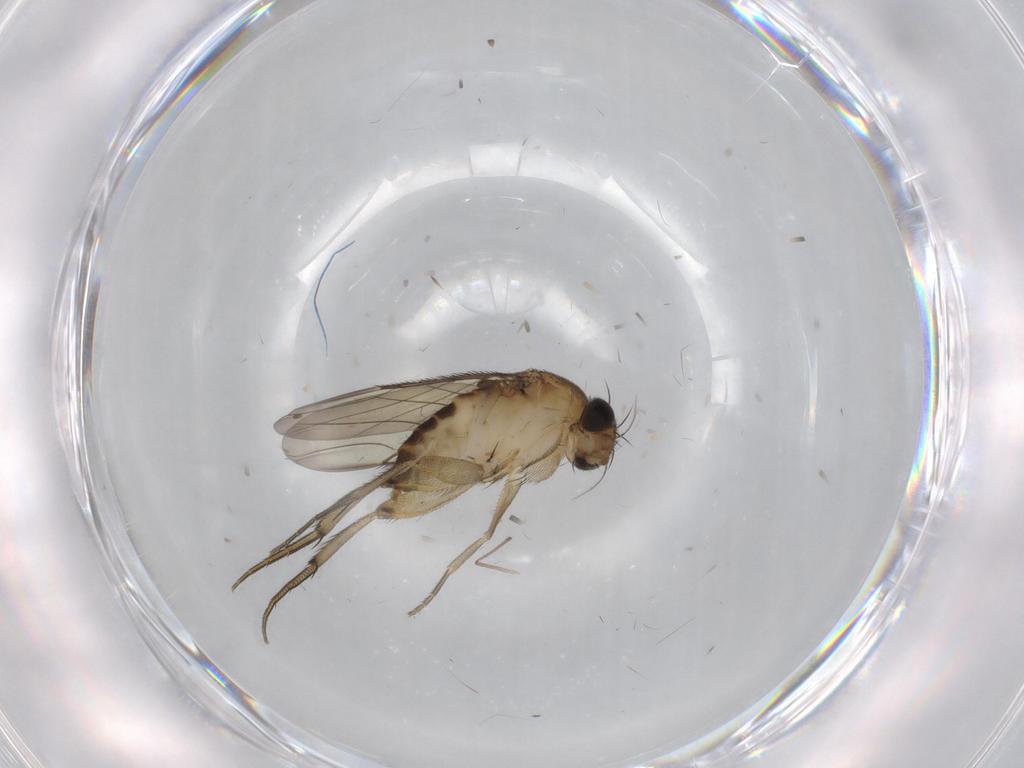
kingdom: Animalia
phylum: Arthropoda
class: Insecta
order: Diptera
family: Phoridae
